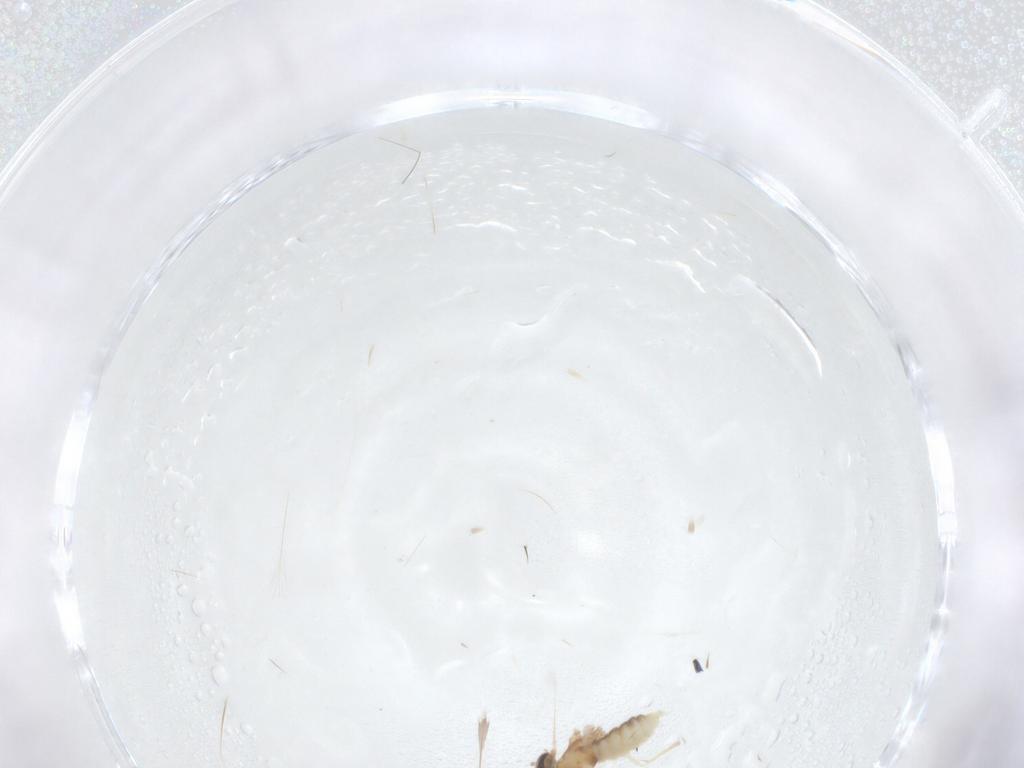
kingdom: Animalia
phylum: Arthropoda
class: Insecta
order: Diptera
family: Cecidomyiidae
